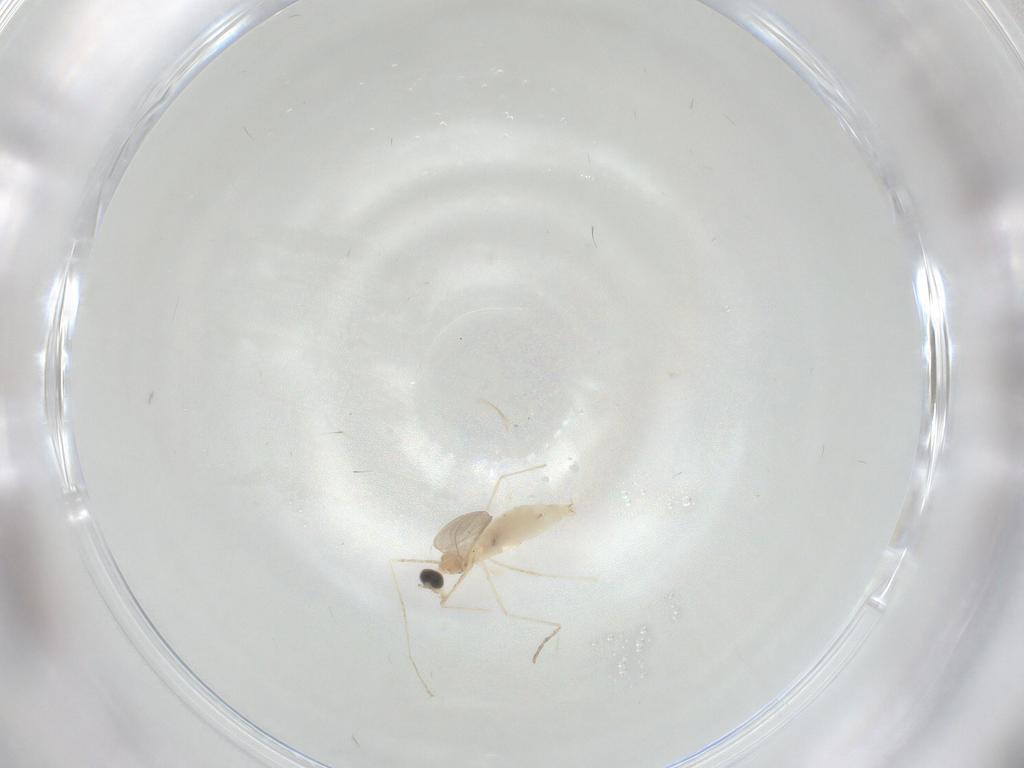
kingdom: Animalia
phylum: Arthropoda
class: Insecta
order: Diptera
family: Cecidomyiidae
